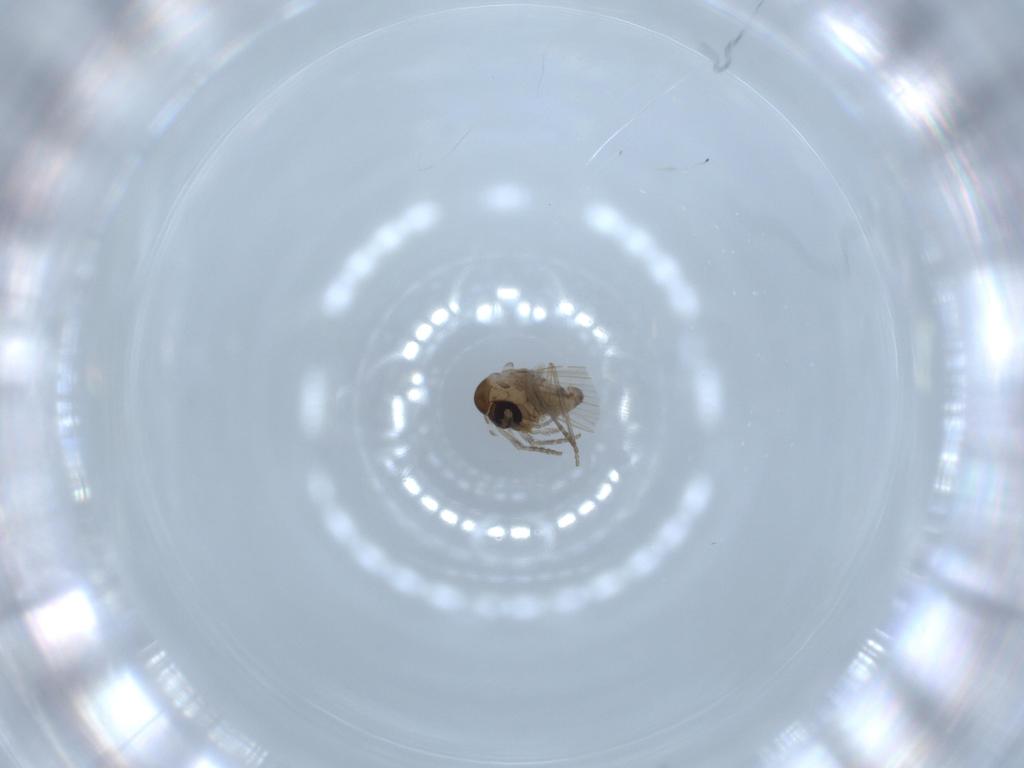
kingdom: Animalia
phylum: Arthropoda
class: Insecta
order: Diptera
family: Psychodidae
